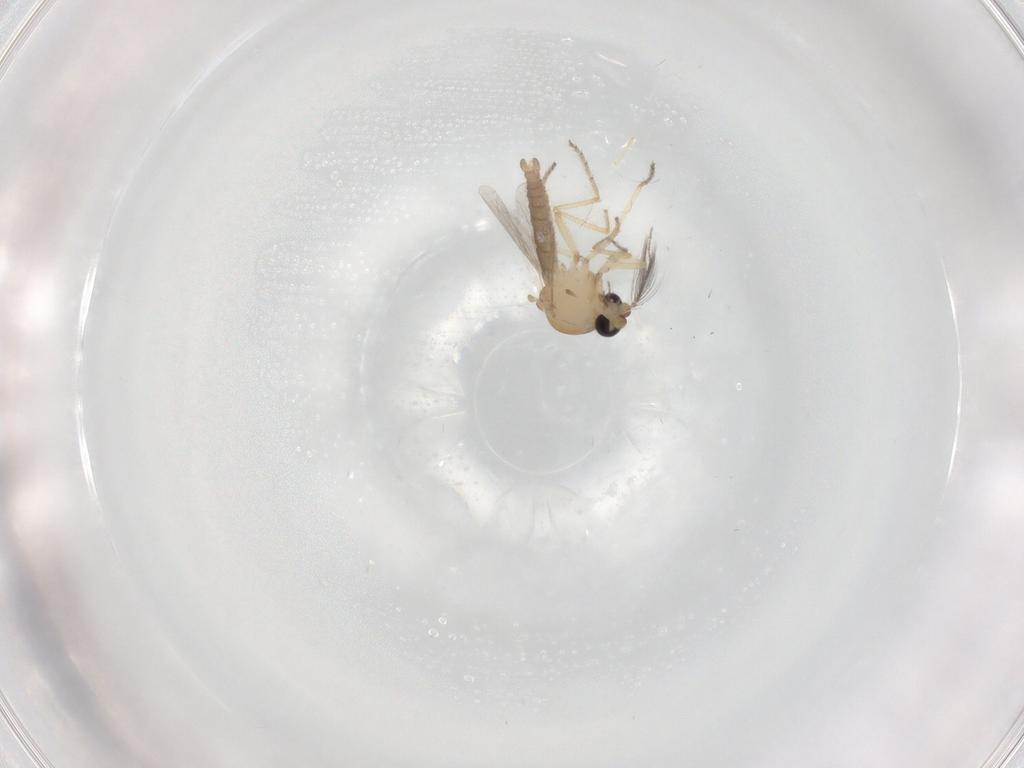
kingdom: Animalia
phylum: Arthropoda
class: Insecta
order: Diptera
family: Ceratopogonidae
